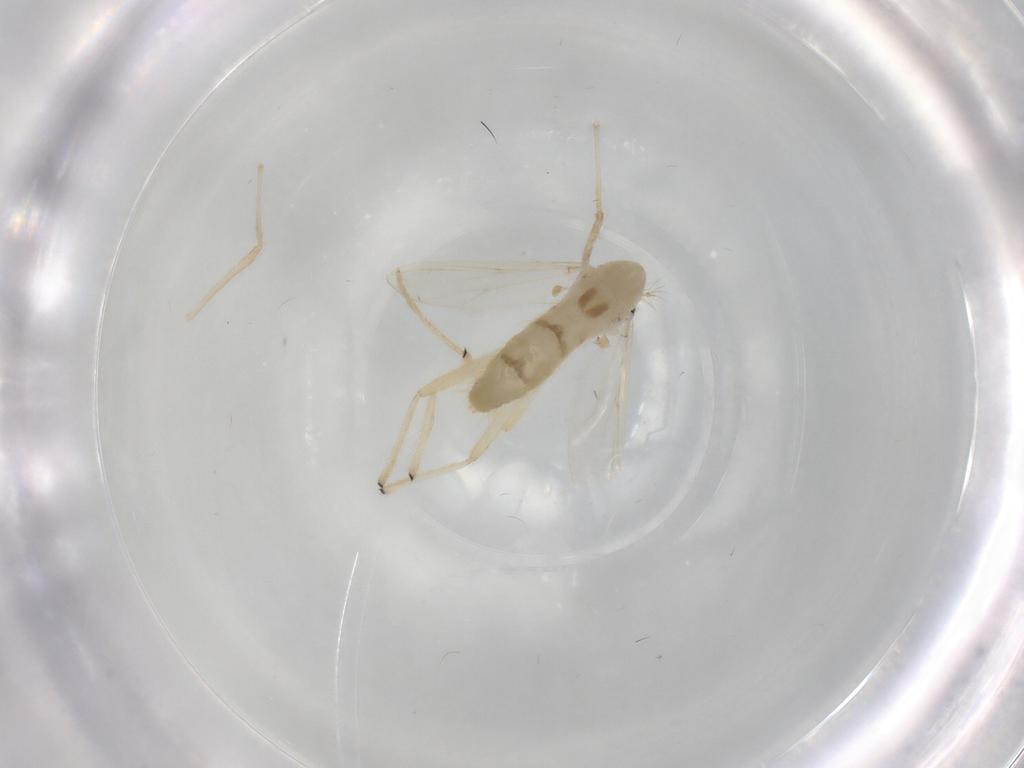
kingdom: Animalia
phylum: Arthropoda
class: Insecta
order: Diptera
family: Chironomidae
